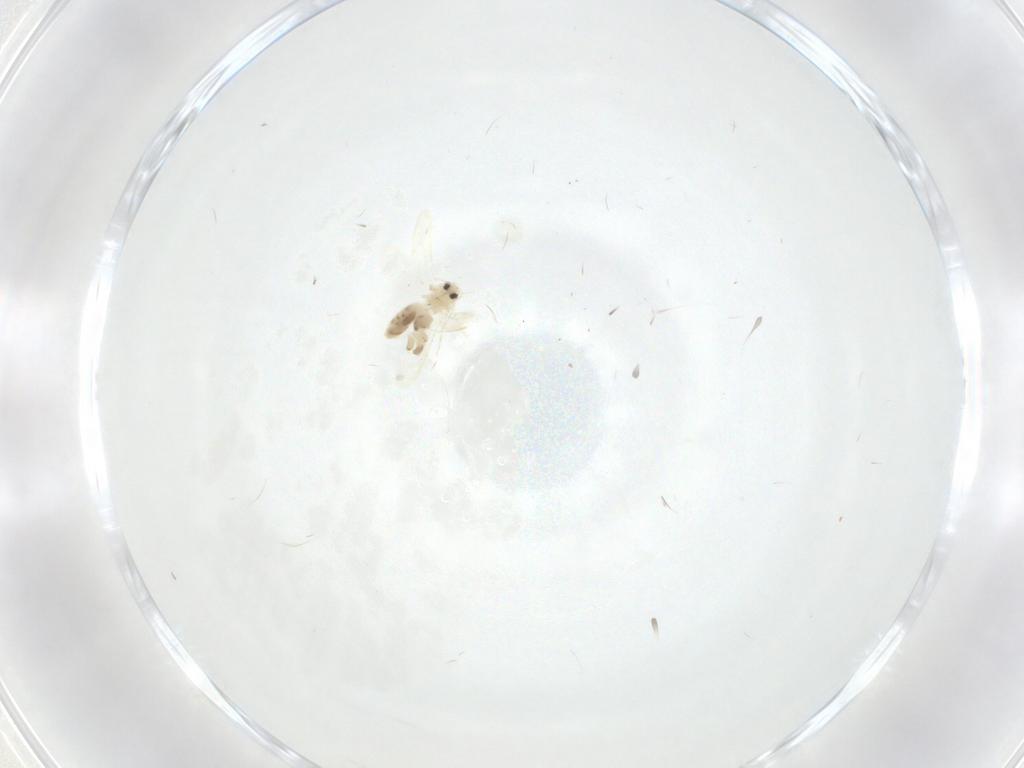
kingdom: Animalia
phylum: Arthropoda
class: Insecta
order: Hemiptera
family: Aleyrodidae
